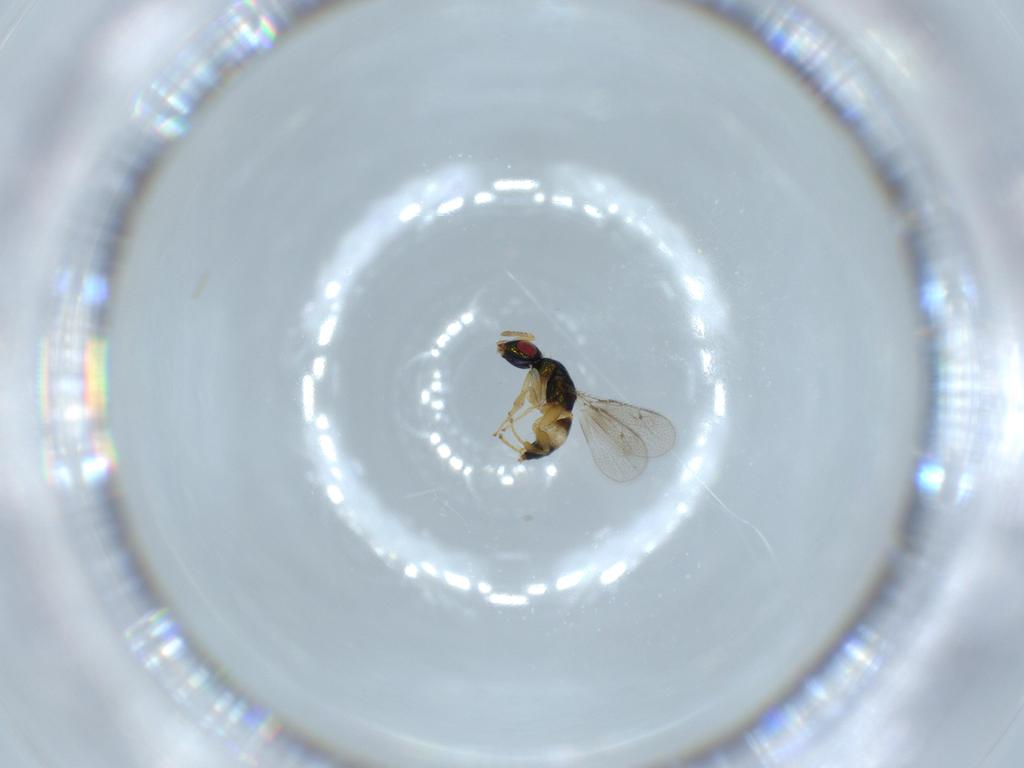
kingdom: Animalia
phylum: Arthropoda
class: Insecta
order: Hymenoptera
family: Torymidae
